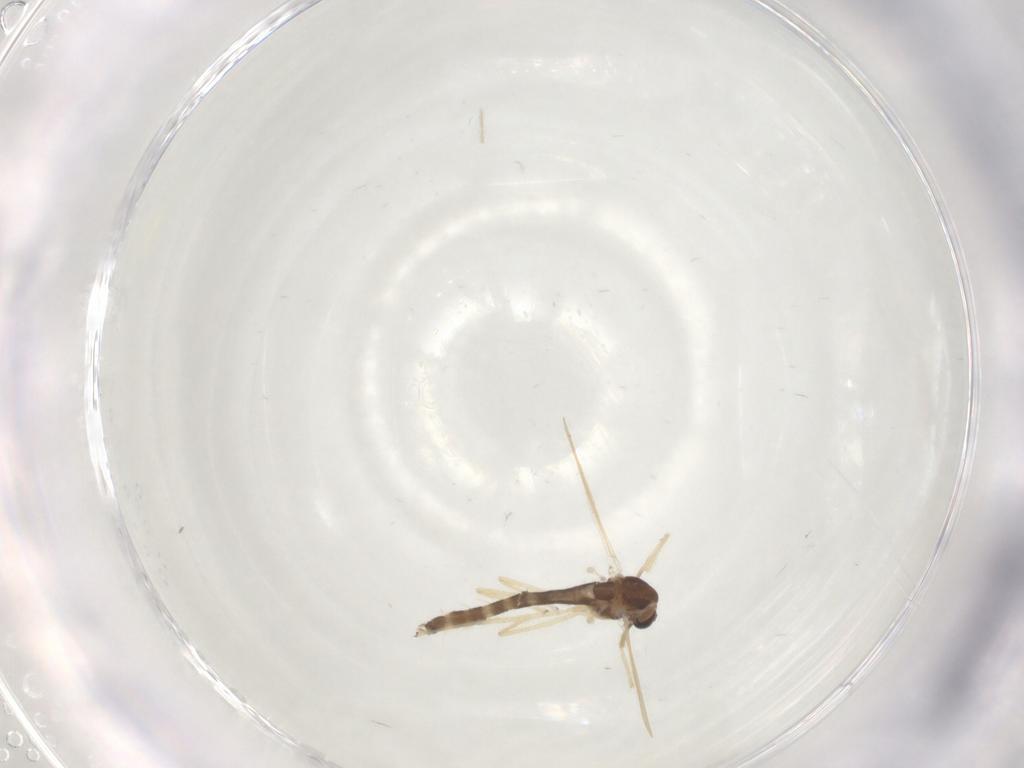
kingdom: Animalia
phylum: Arthropoda
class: Insecta
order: Diptera
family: Chironomidae
